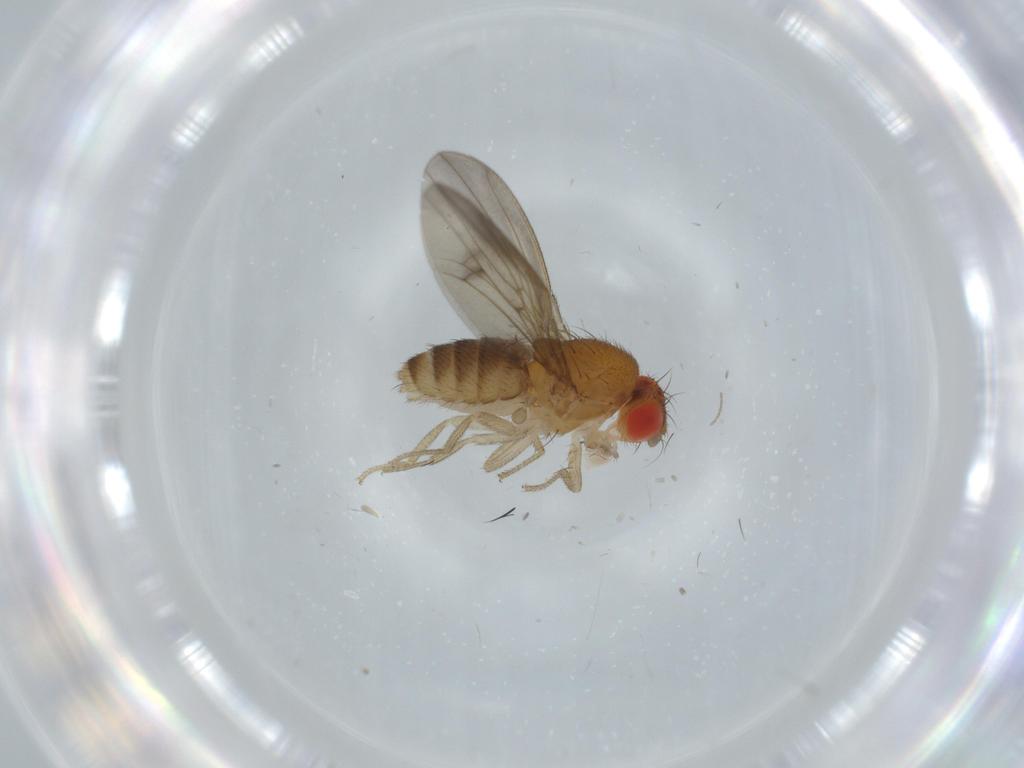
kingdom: Animalia
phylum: Arthropoda
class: Insecta
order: Diptera
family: Drosophilidae
